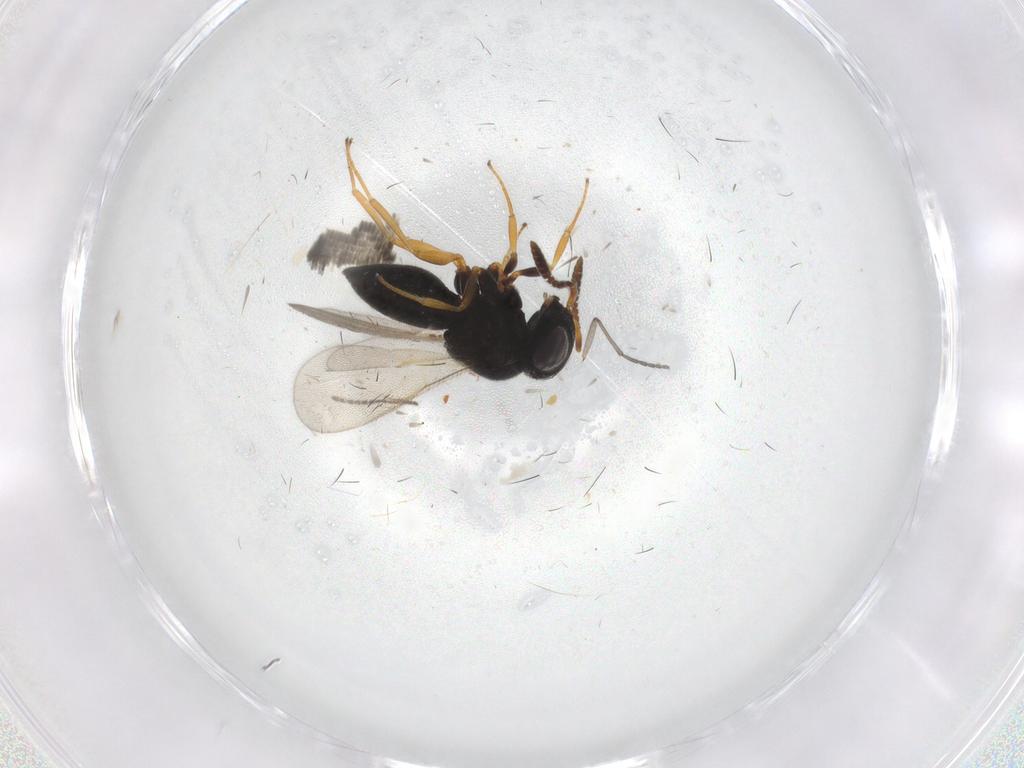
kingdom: Animalia
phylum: Arthropoda
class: Insecta
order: Hymenoptera
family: Scelionidae
